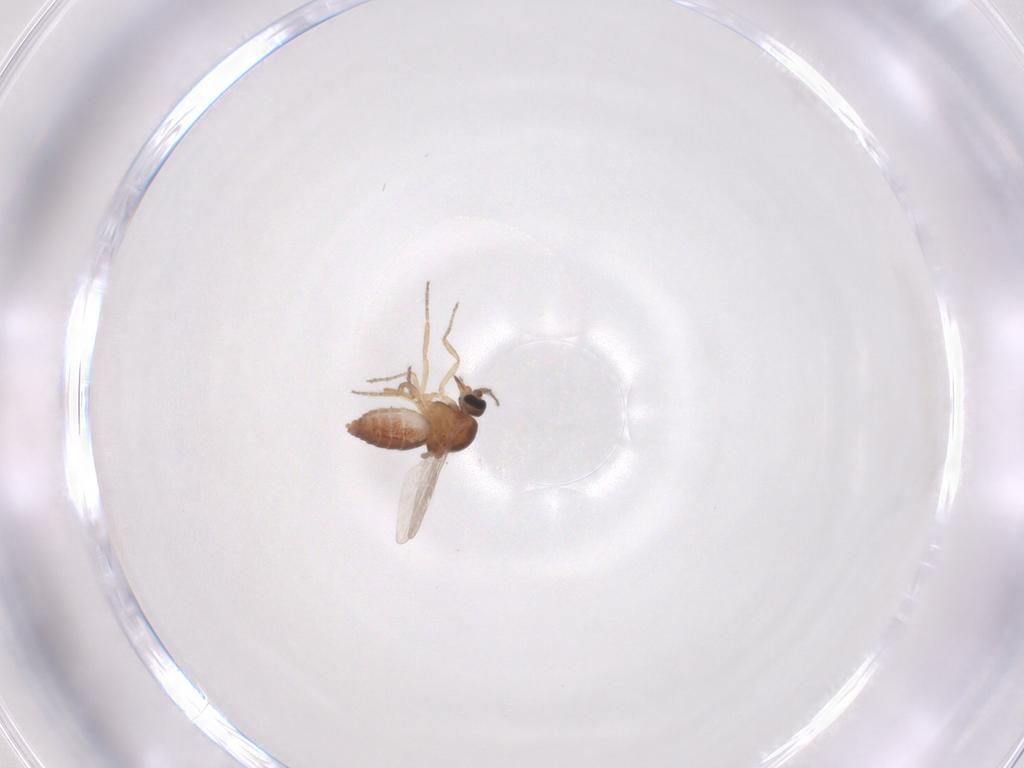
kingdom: Animalia
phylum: Arthropoda
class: Insecta
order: Diptera
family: Ceratopogonidae
